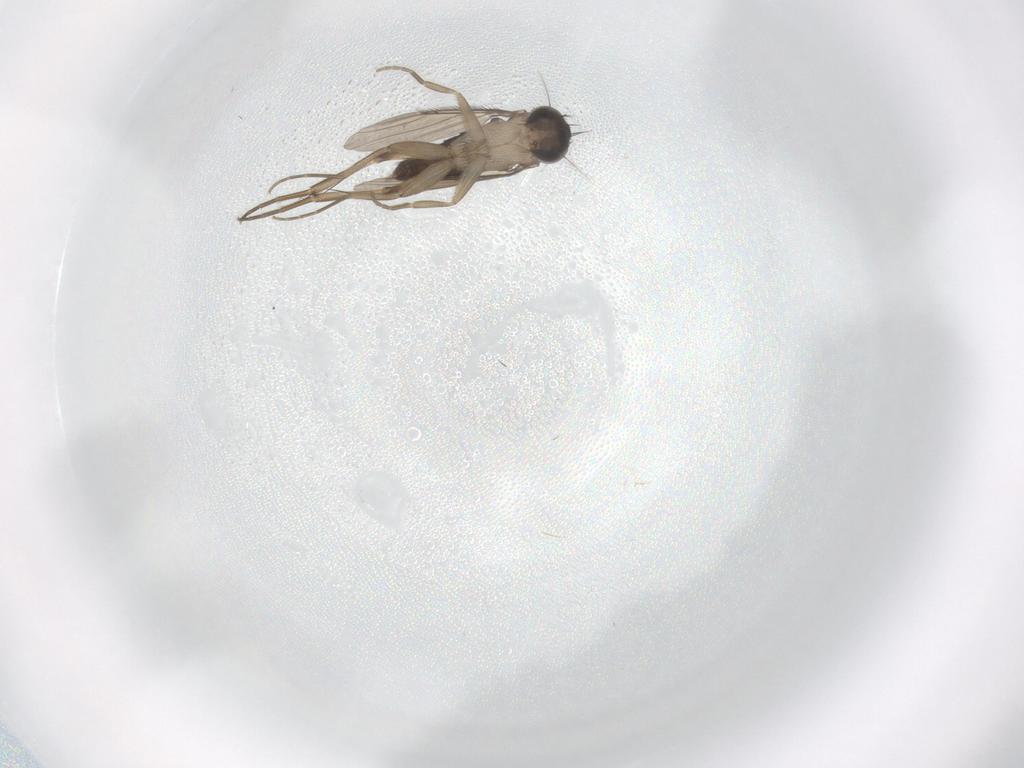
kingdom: Animalia
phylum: Arthropoda
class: Insecta
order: Diptera
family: Phoridae
